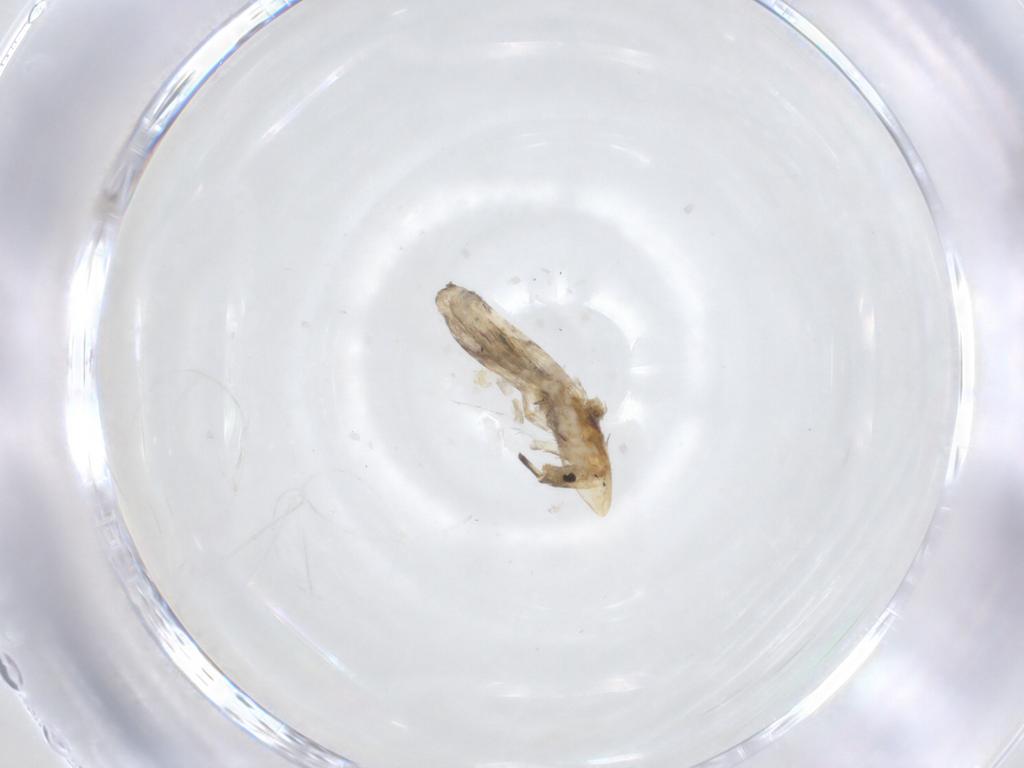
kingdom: Animalia
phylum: Arthropoda
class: Collembola
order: Entomobryomorpha
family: Entomobryidae
